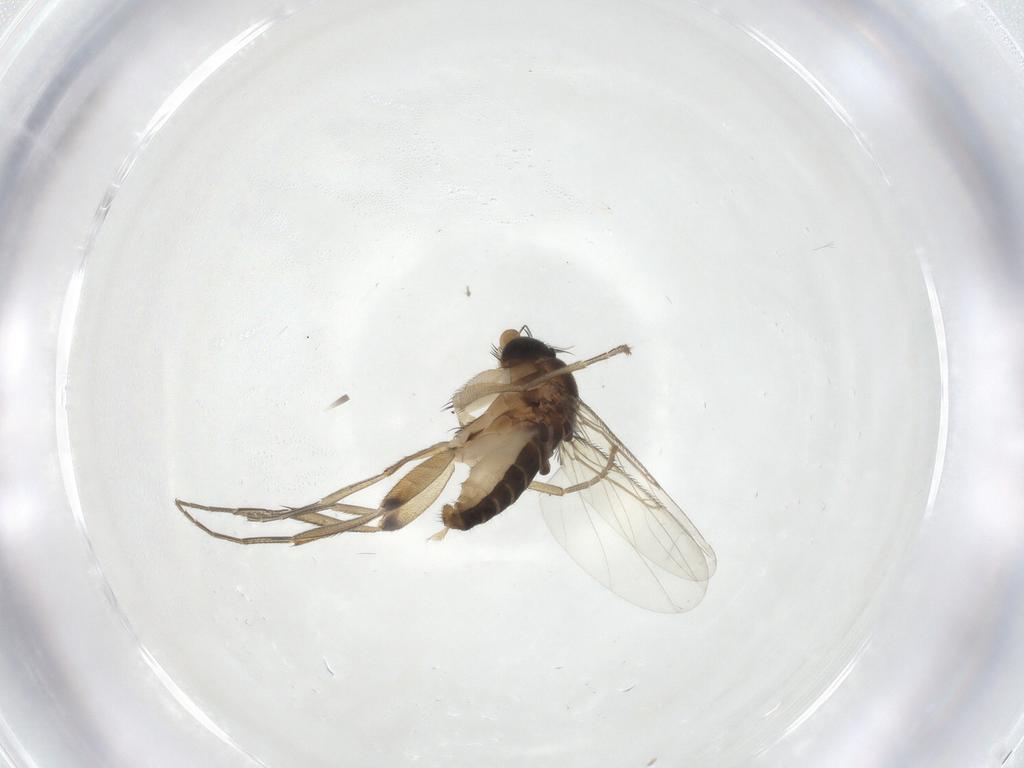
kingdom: Animalia
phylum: Arthropoda
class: Insecta
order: Diptera
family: Phoridae
